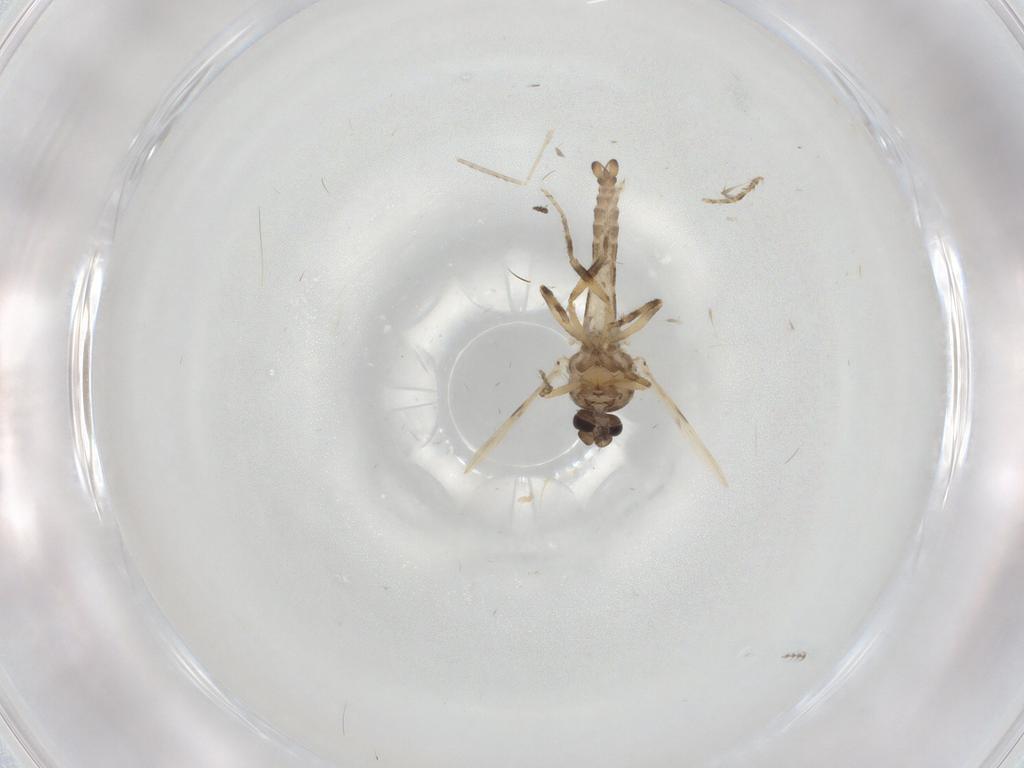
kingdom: Animalia
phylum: Arthropoda
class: Insecta
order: Diptera
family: Ceratopogonidae
